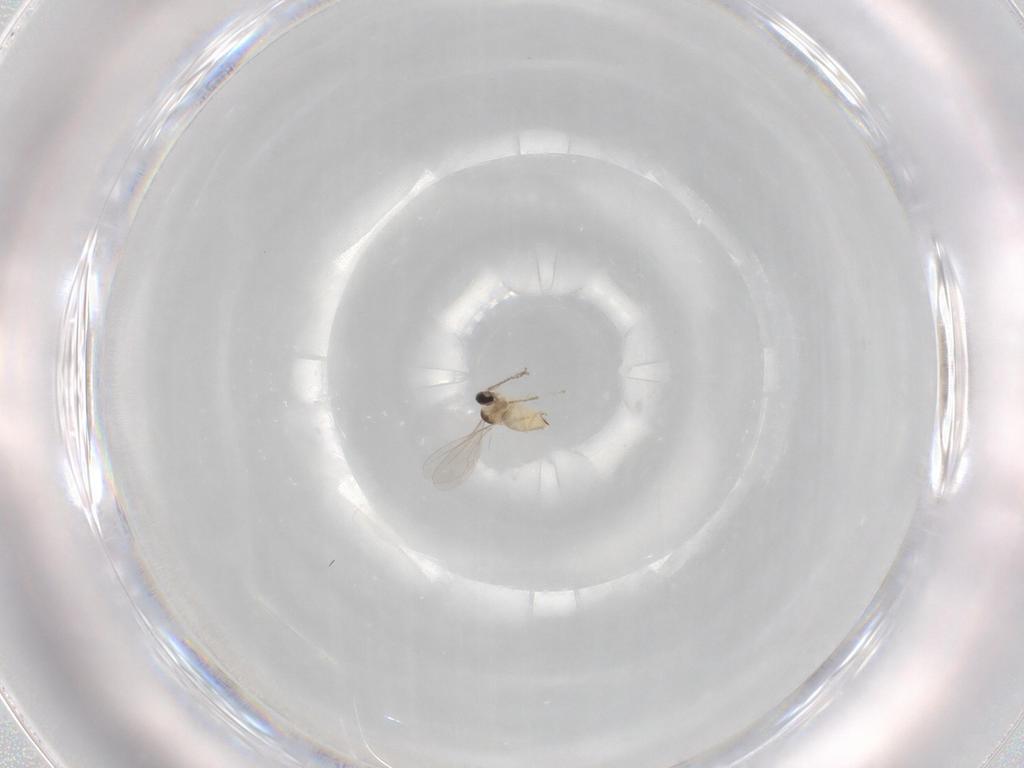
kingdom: Animalia
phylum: Arthropoda
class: Insecta
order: Diptera
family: Cecidomyiidae
